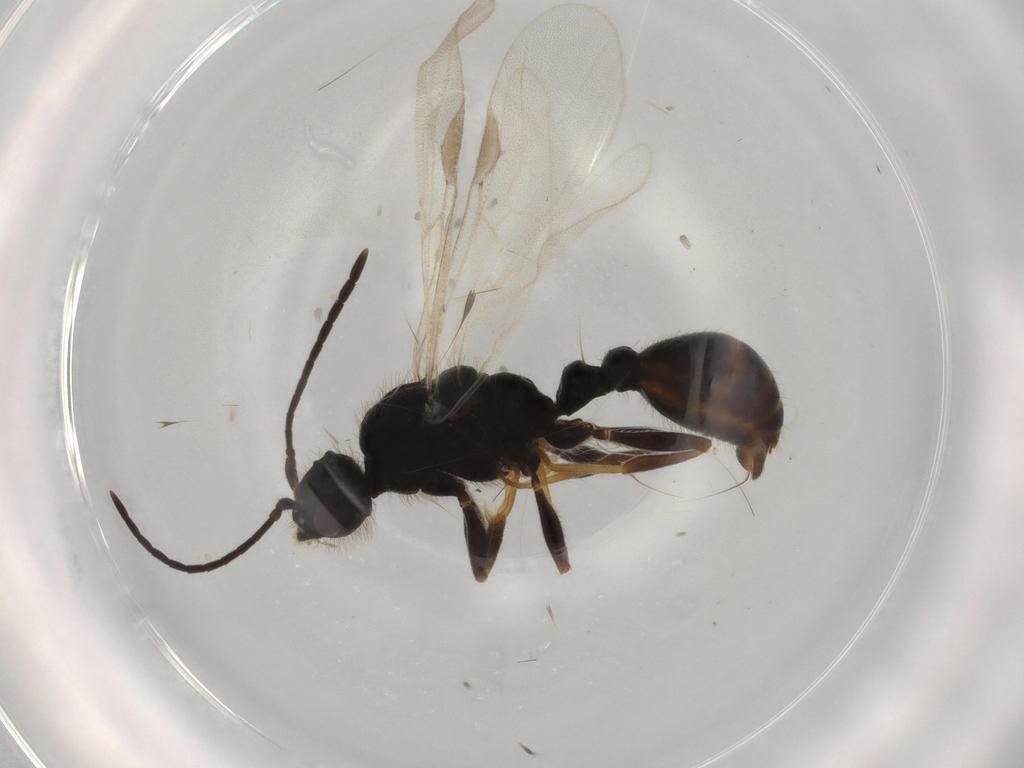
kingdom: Animalia
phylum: Arthropoda
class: Insecta
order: Hymenoptera
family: Formicidae
